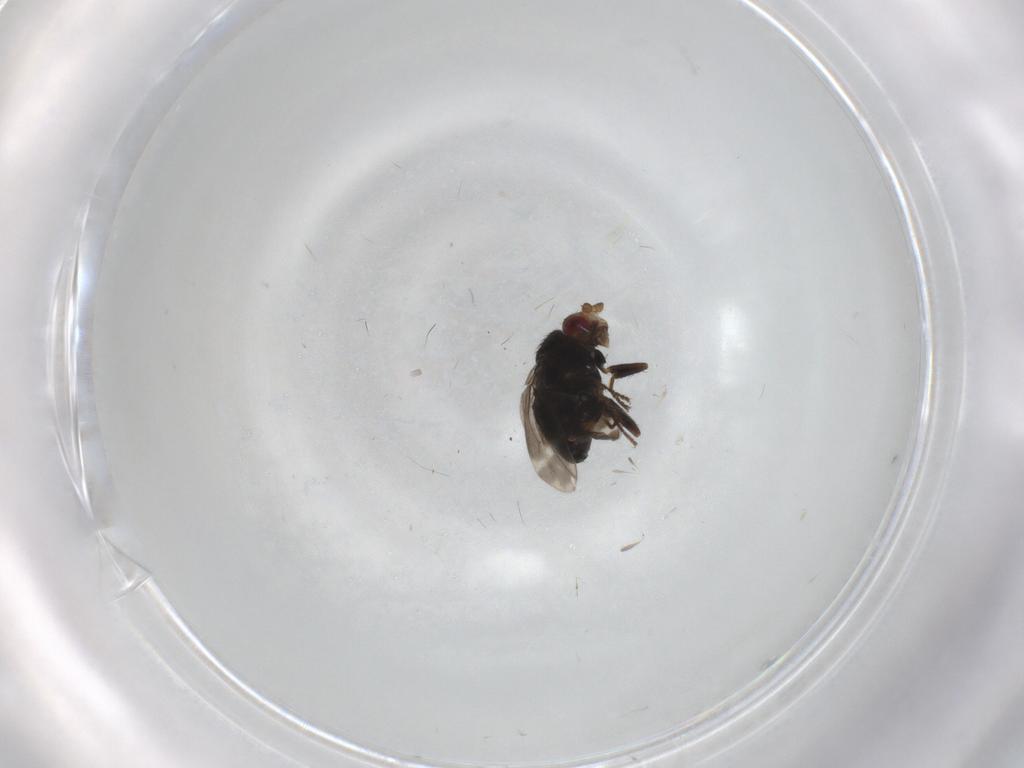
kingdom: Animalia
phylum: Arthropoda
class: Insecta
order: Diptera
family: Sphaeroceridae
